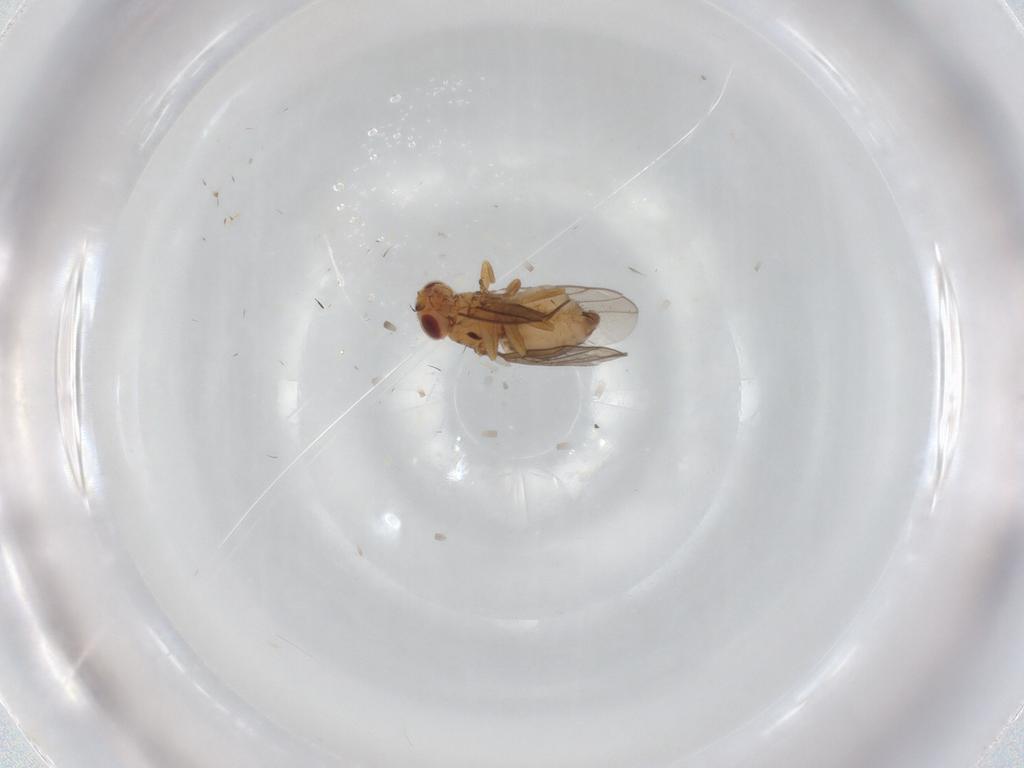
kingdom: Animalia
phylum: Arthropoda
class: Insecta
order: Diptera
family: Chloropidae
